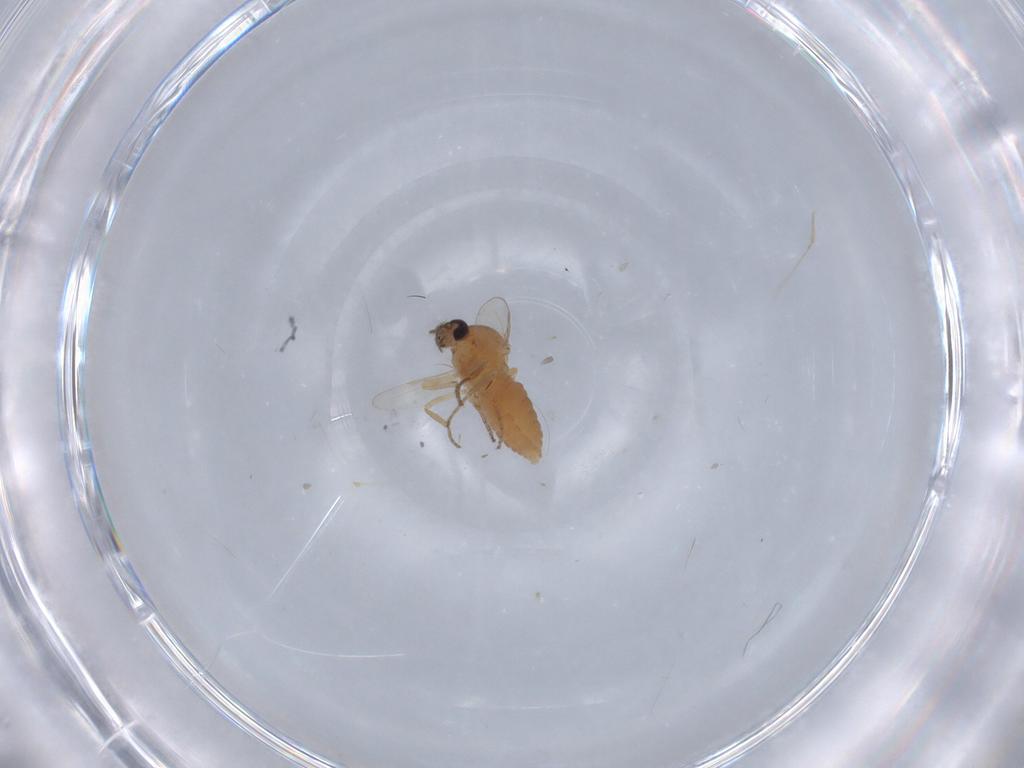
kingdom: Animalia
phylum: Arthropoda
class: Insecta
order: Diptera
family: Ceratopogonidae
